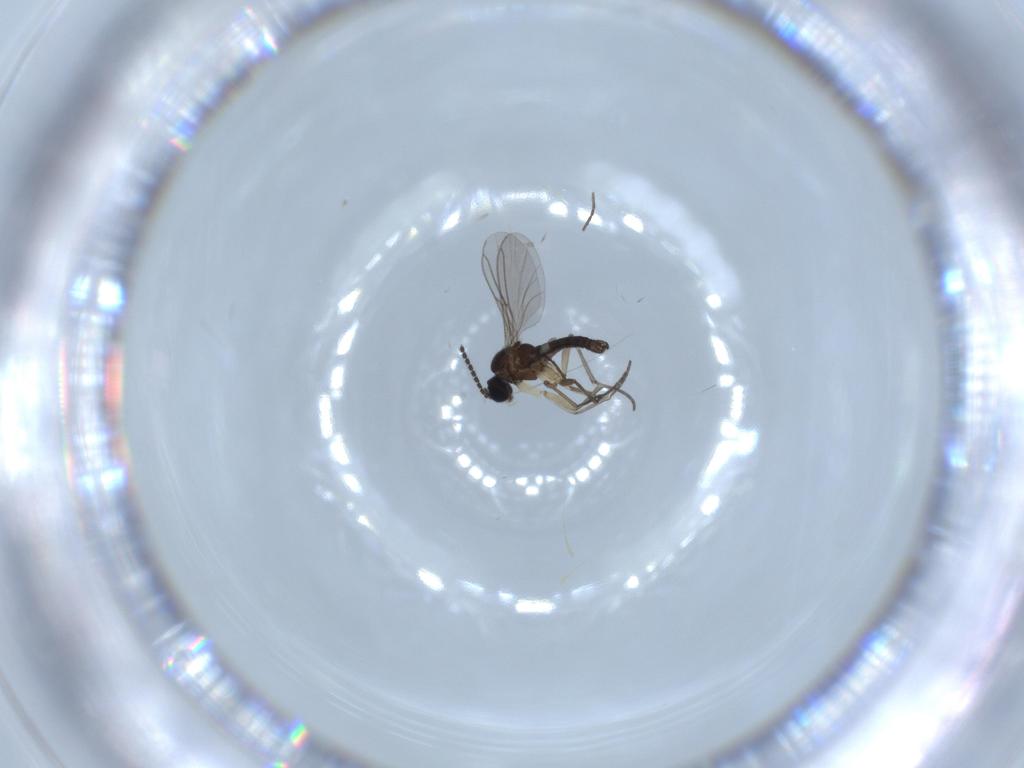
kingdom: Animalia
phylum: Arthropoda
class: Insecta
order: Diptera
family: Sciaridae
